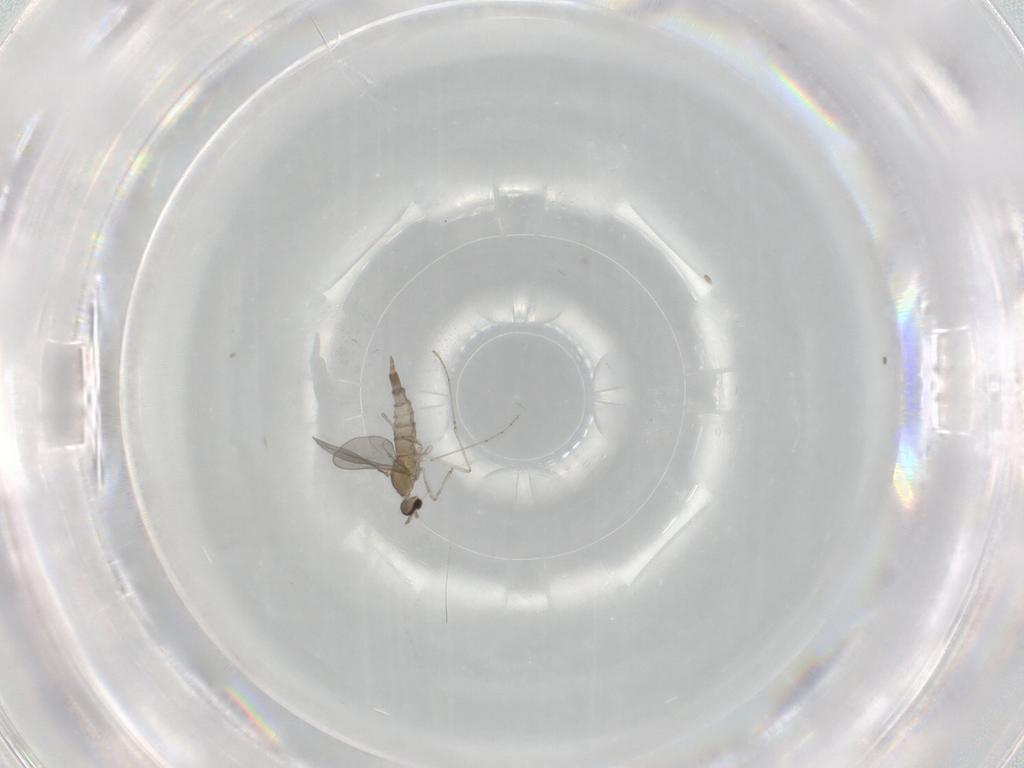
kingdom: Animalia
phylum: Arthropoda
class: Insecta
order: Diptera
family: Cecidomyiidae
